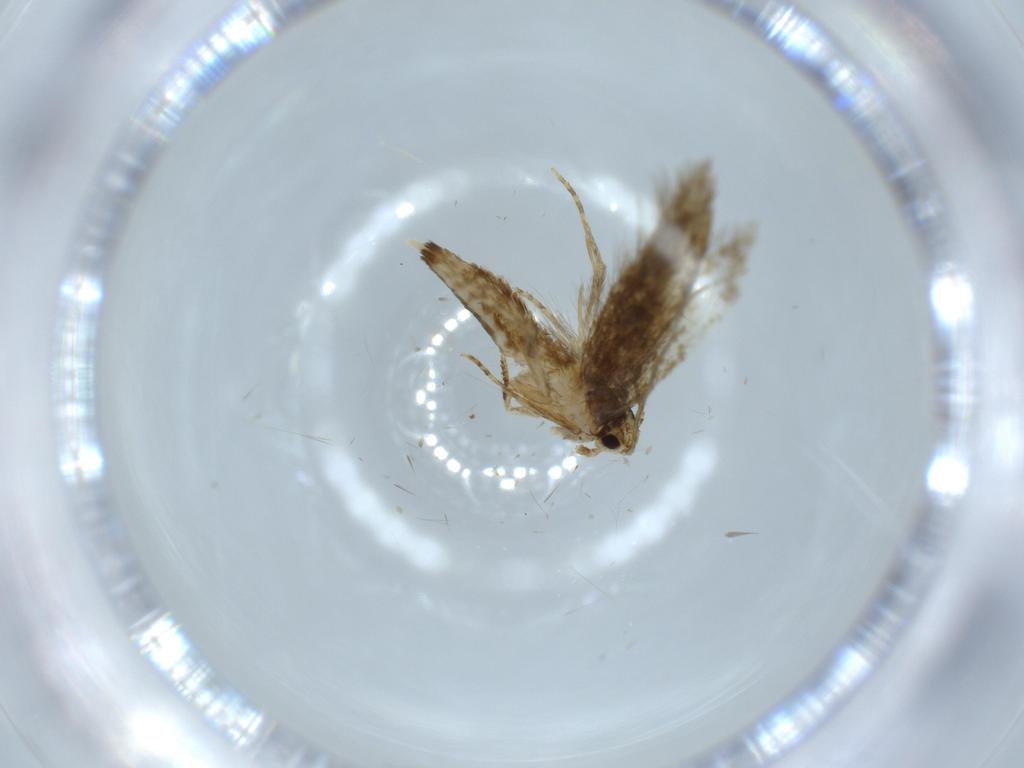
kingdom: Animalia
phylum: Arthropoda
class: Insecta
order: Lepidoptera
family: Tineidae
